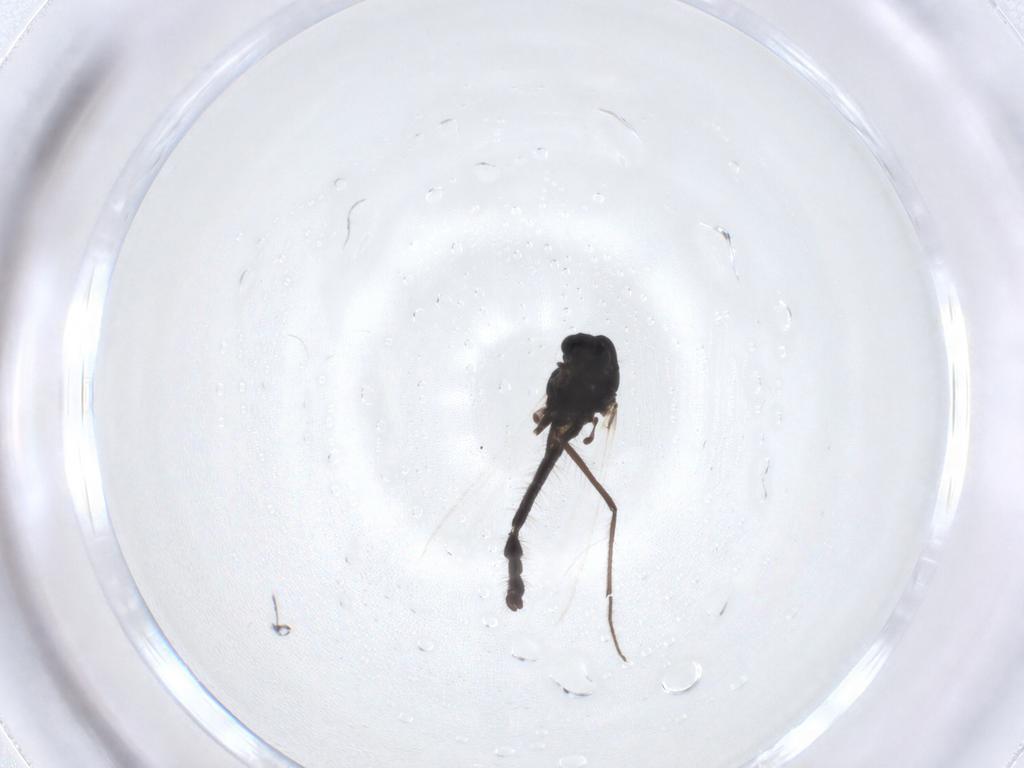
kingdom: Animalia
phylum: Arthropoda
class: Insecta
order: Diptera
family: Chironomidae
